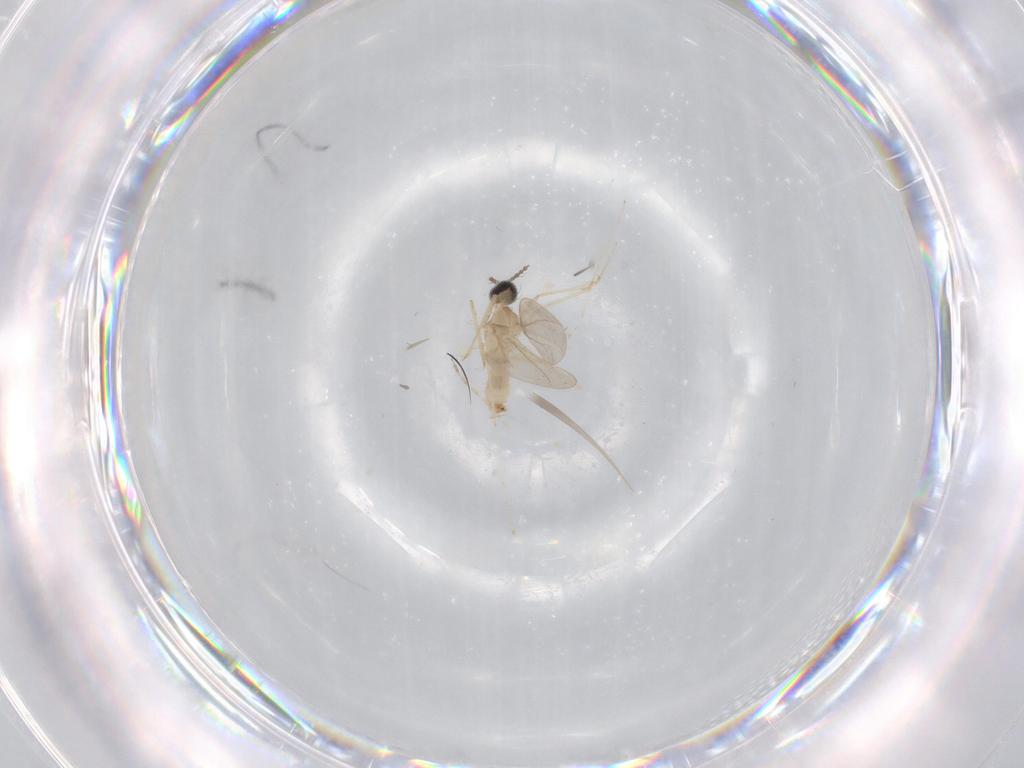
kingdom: Animalia
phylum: Arthropoda
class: Insecta
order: Diptera
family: Chironomidae
